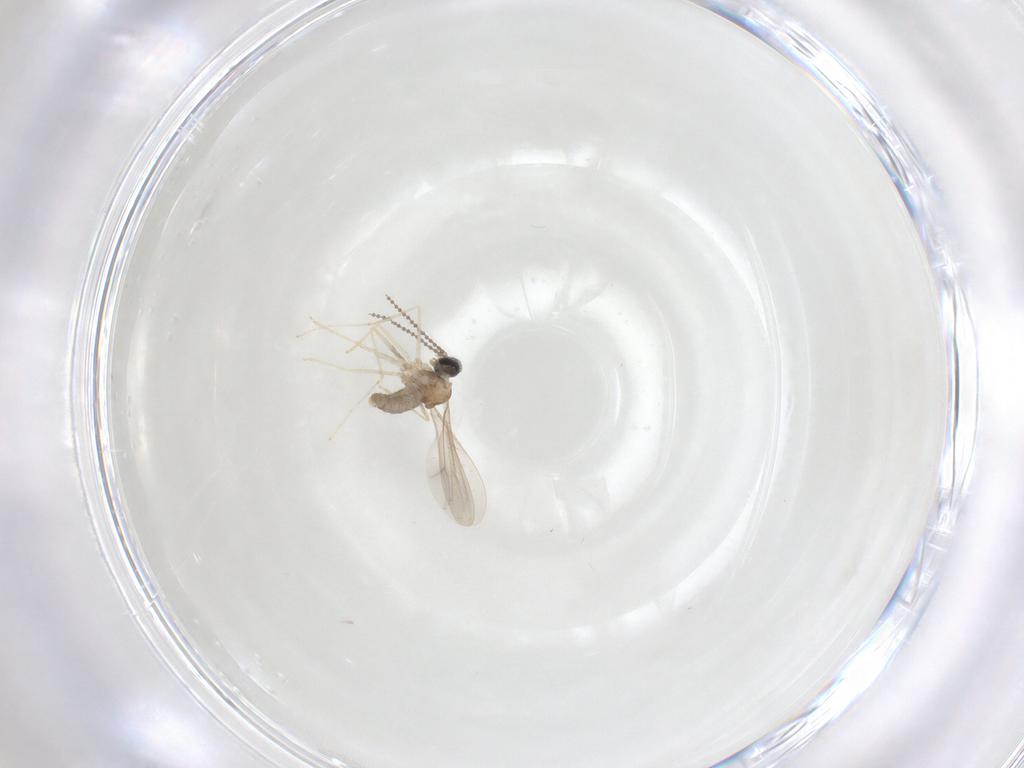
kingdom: Animalia
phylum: Arthropoda
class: Insecta
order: Diptera
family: Cecidomyiidae
